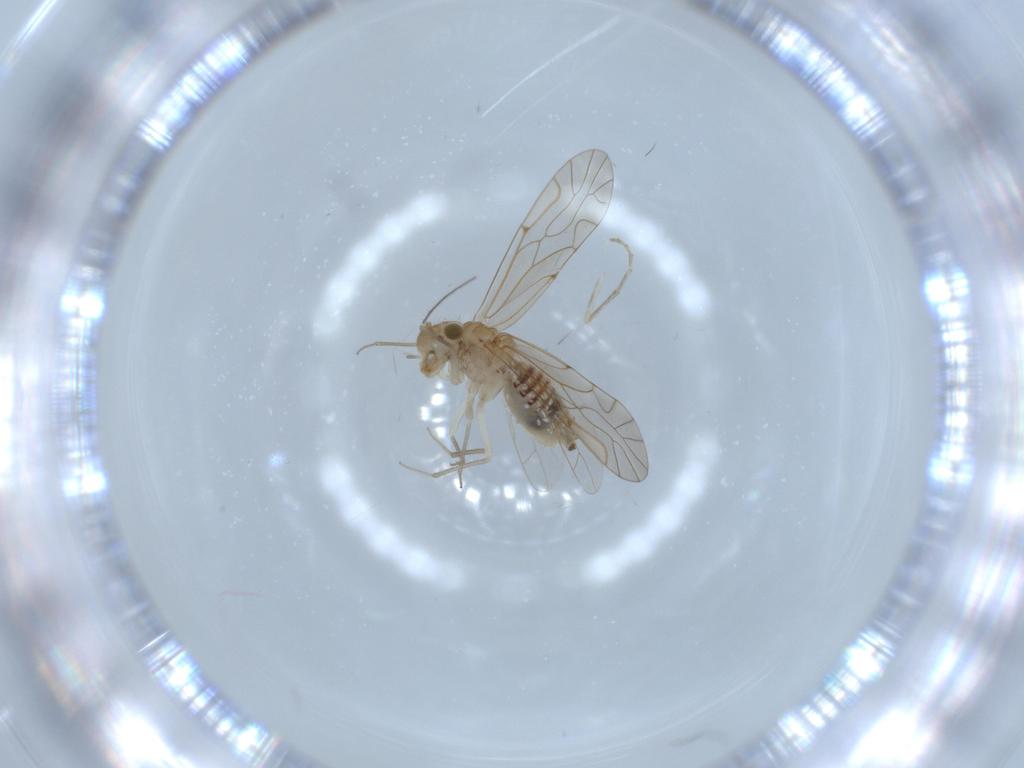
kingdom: Animalia
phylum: Arthropoda
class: Insecta
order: Psocodea
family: Lachesillidae
